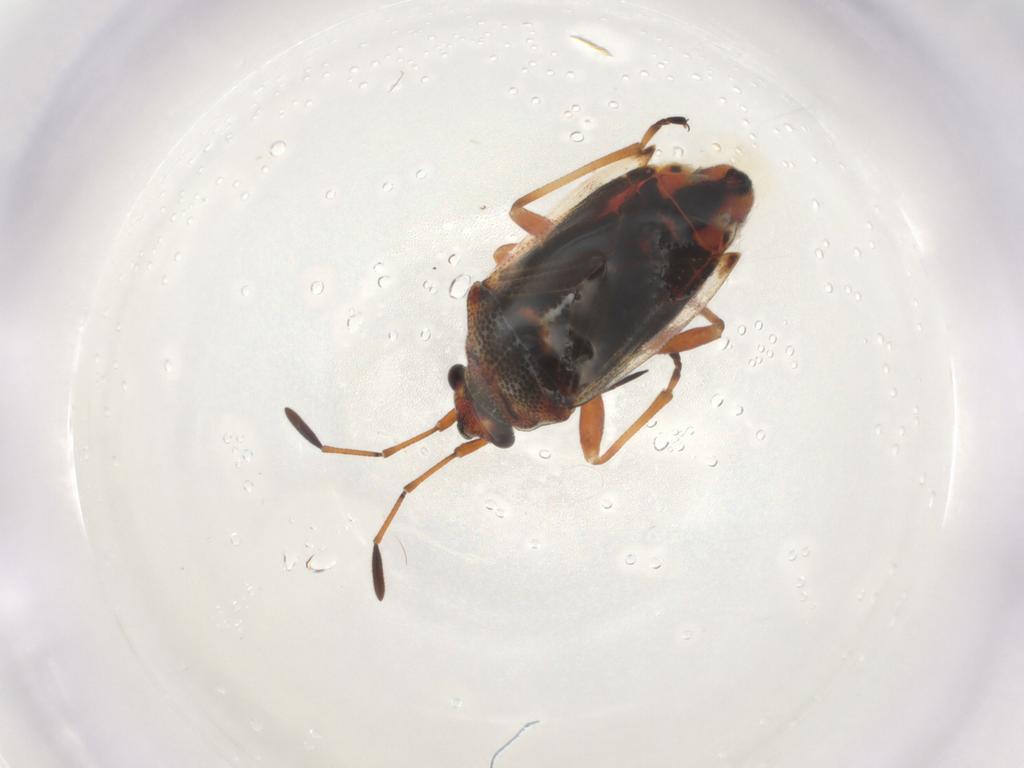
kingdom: Animalia
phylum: Arthropoda
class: Insecta
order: Hemiptera
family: Lygaeidae
